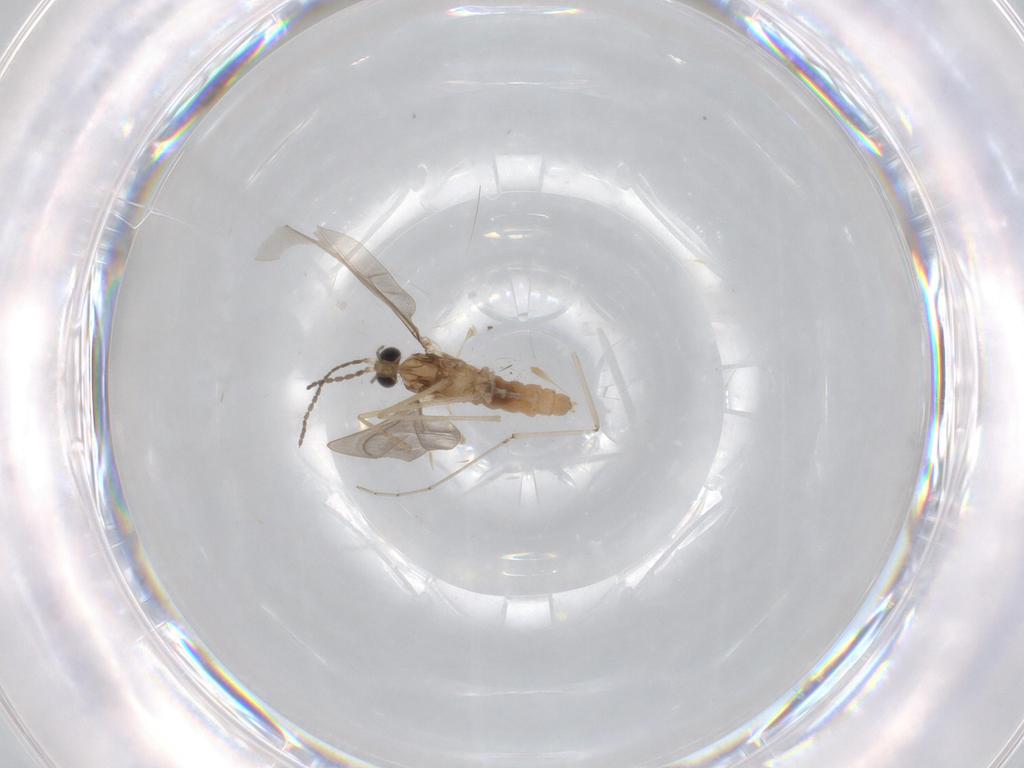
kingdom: Animalia
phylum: Arthropoda
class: Insecta
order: Diptera
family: Cecidomyiidae
